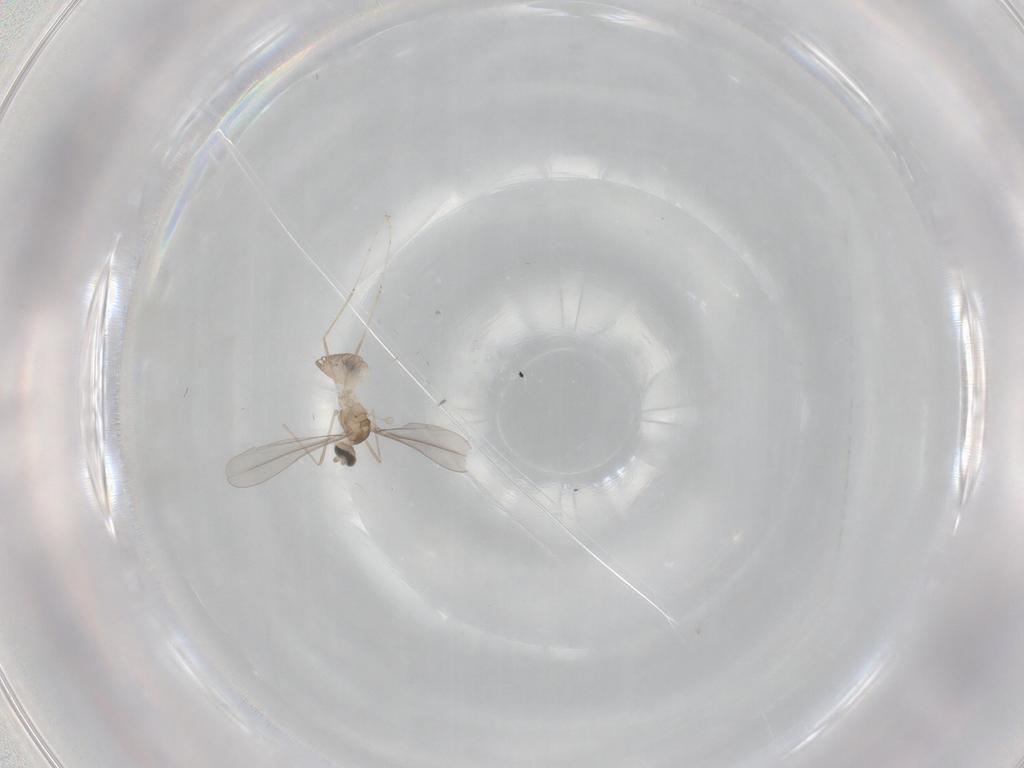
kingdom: Animalia
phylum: Arthropoda
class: Insecta
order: Diptera
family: Cecidomyiidae
